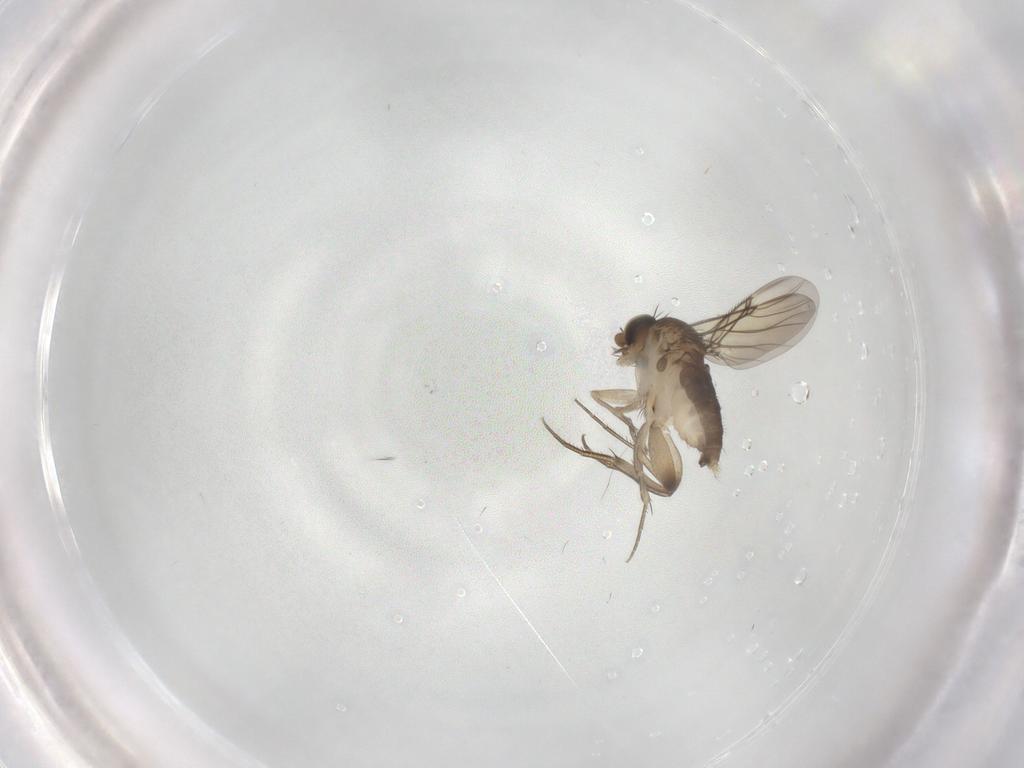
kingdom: Animalia
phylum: Arthropoda
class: Insecta
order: Diptera
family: Phoridae
